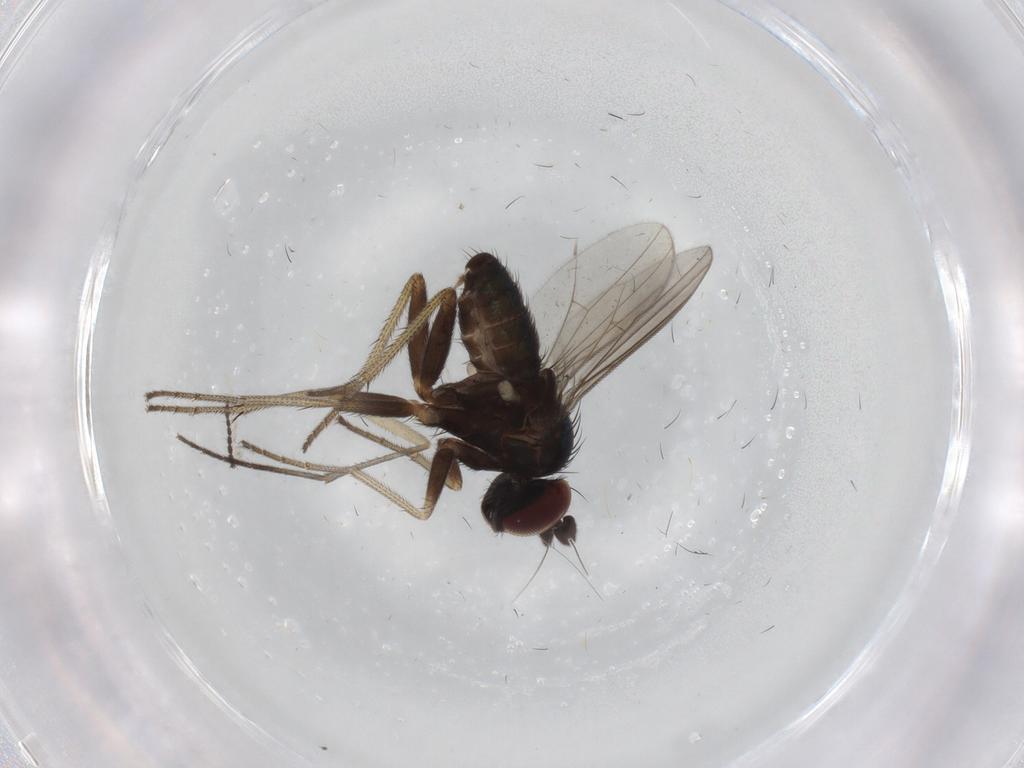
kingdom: Animalia
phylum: Arthropoda
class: Insecta
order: Diptera
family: Dolichopodidae
